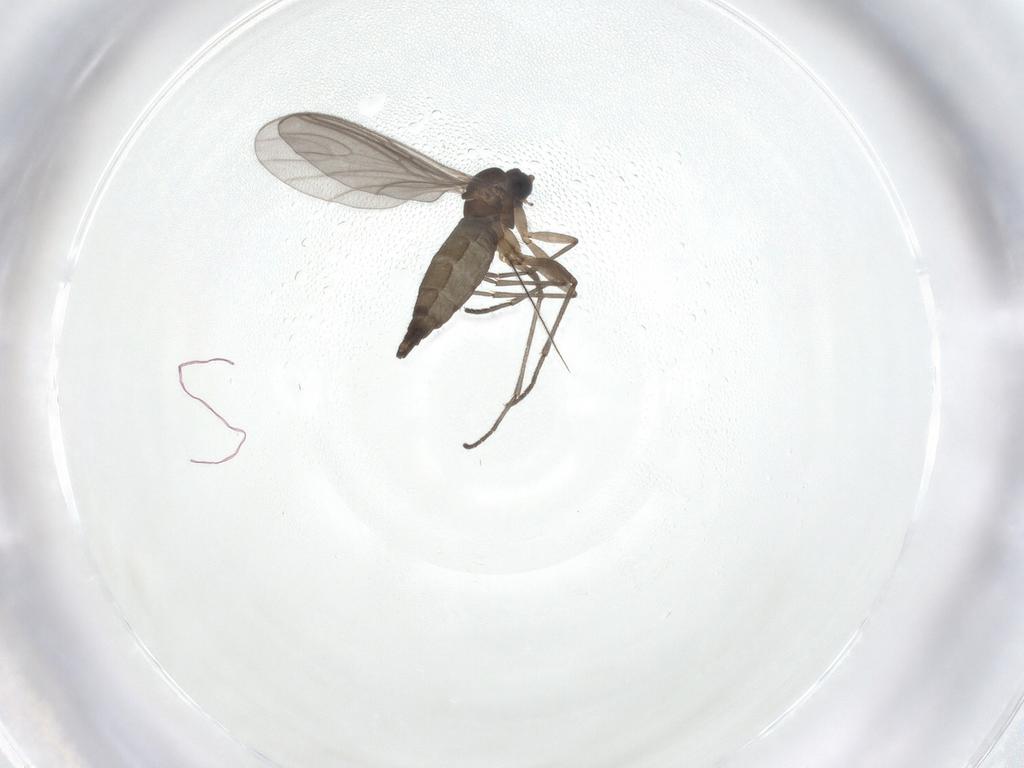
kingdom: Animalia
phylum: Arthropoda
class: Insecta
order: Diptera
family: Sciaridae
